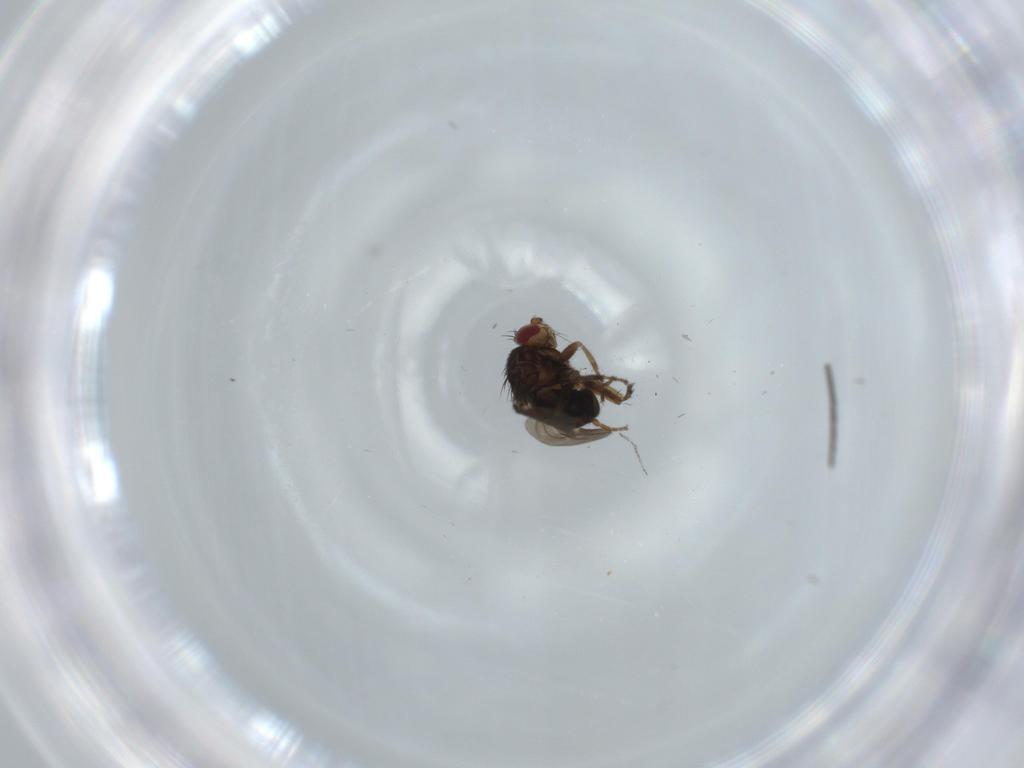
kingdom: Animalia
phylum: Arthropoda
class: Insecta
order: Diptera
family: Sphaeroceridae
